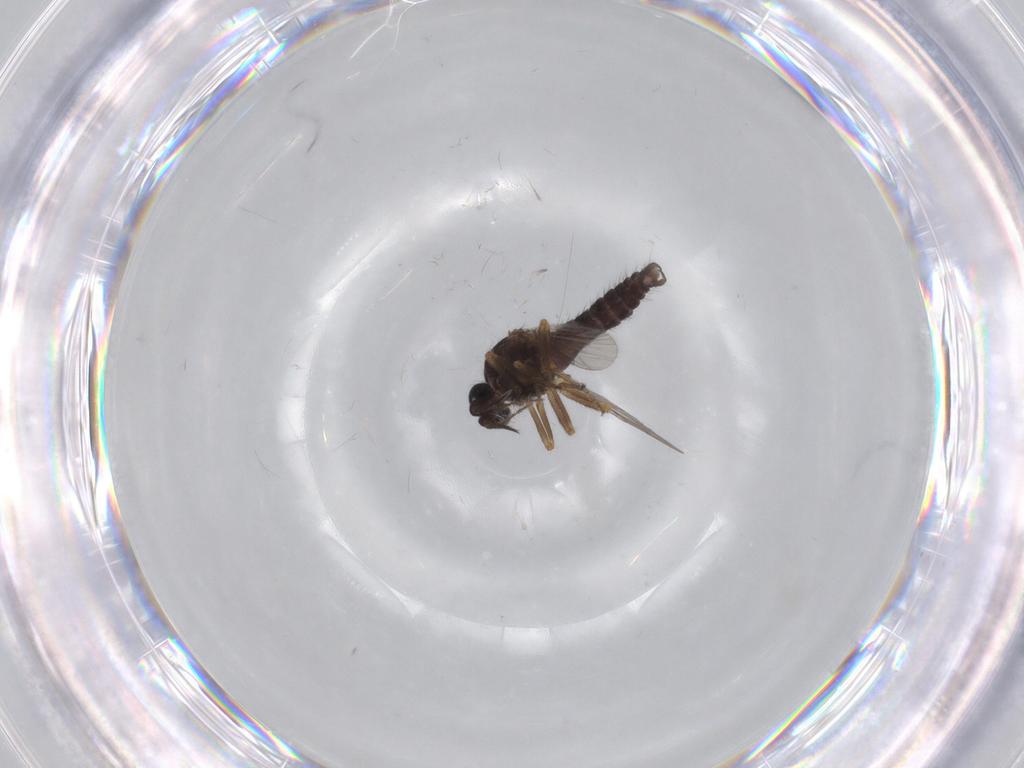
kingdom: Animalia
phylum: Arthropoda
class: Insecta
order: Diptera
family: Ceratopogonidae
